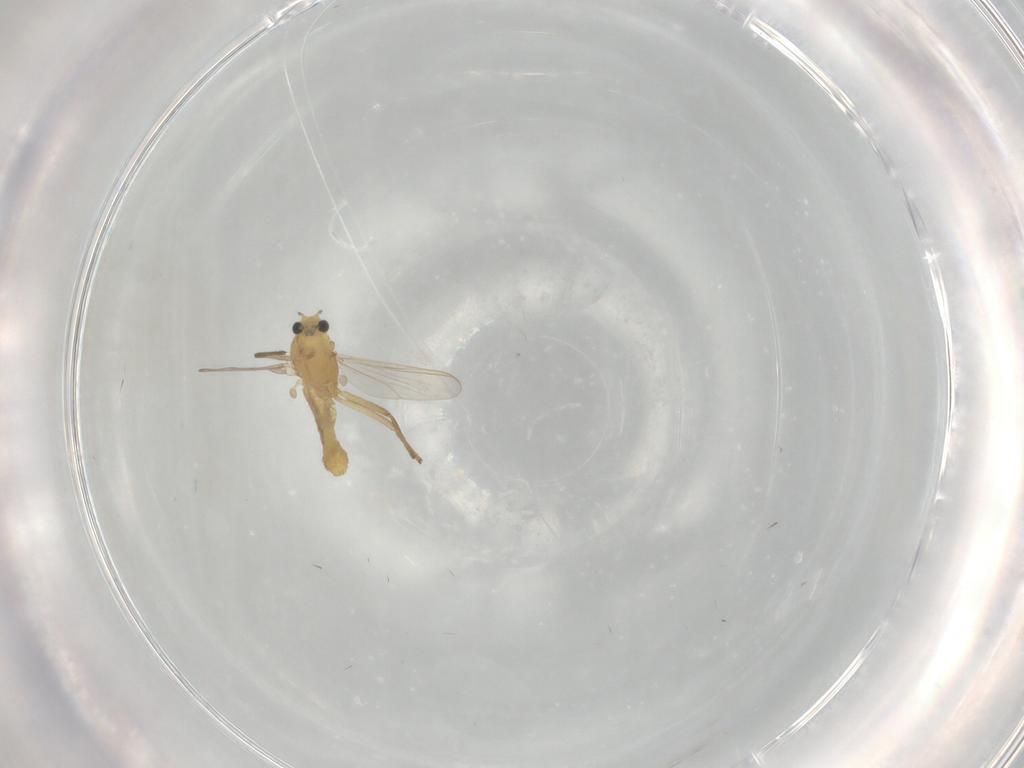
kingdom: Animalia
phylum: Arthropoda
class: Insecta
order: Diptera
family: Chironomidae
